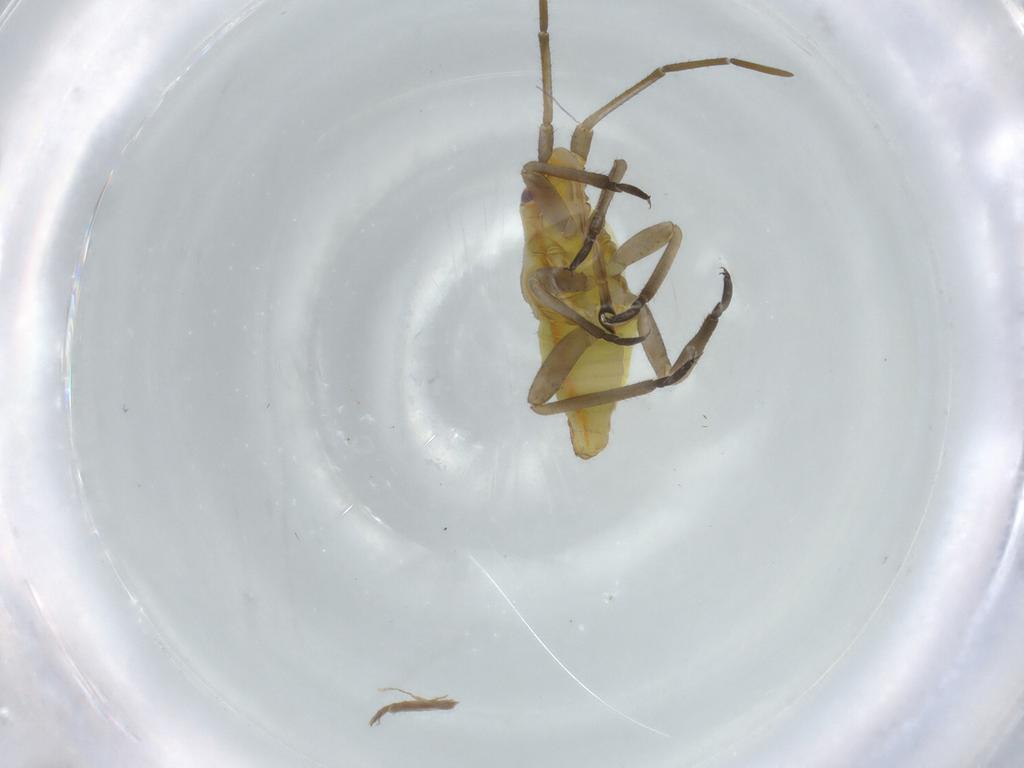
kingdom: Animalia
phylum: Arthropoda
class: Insecta
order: Hemiptera
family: Miridae
